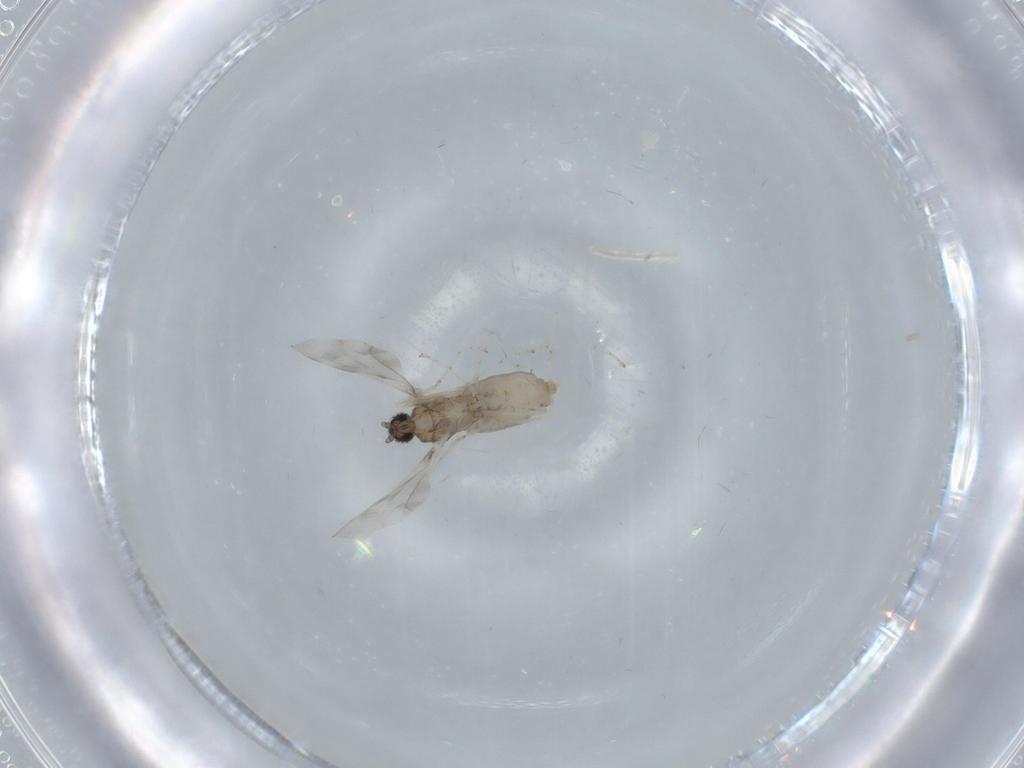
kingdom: Animalia
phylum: Arthropoda
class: Insecta
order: Diptera
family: Cecidomyiidae
